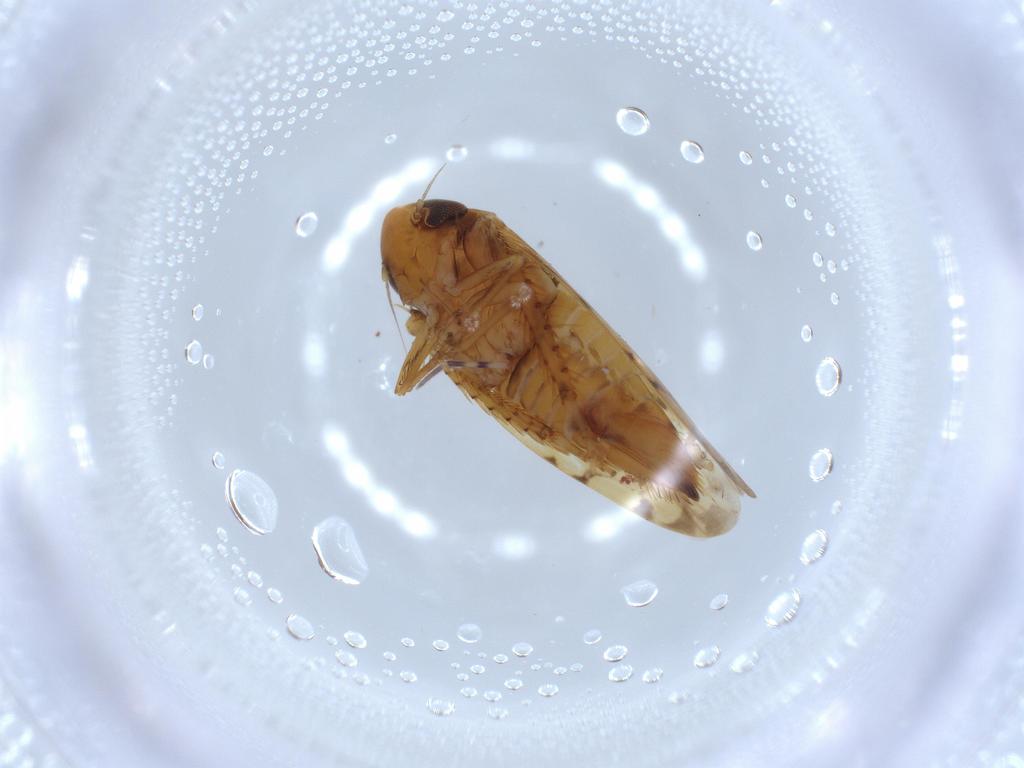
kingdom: Animalia
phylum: Arthropoda
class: Insecta
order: Hemiptera
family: Cicadellidae
